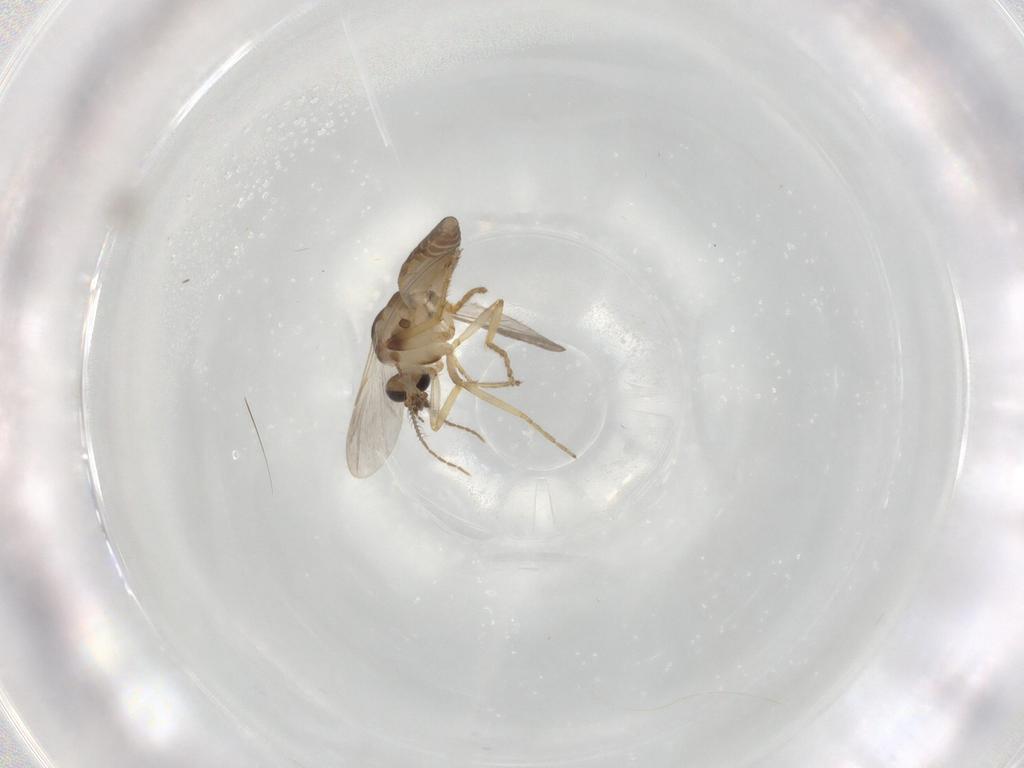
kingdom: Animalia
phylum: Arthropoda
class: Insecta
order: Diptera
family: Ceratopogonidae
